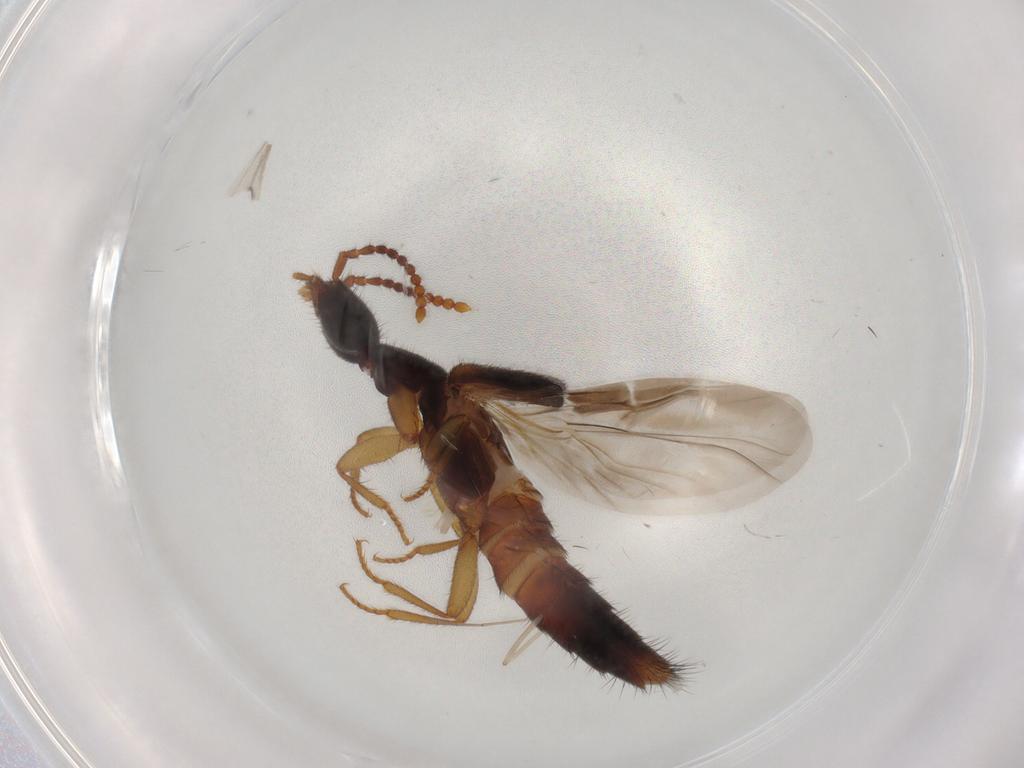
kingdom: Animalia
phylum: Arthropoda
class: Insecta
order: Coleoptera
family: Staphylinidae
